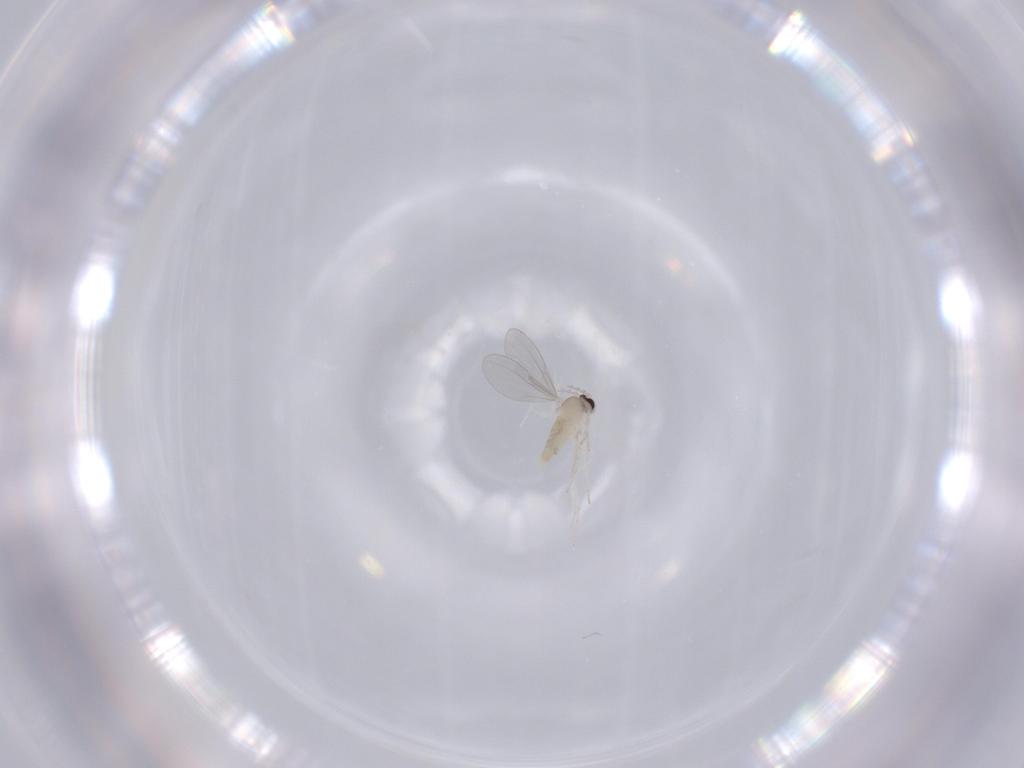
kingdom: Animalia
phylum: Arthropoda
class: Insecta
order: Diptera
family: Cecidomyiidae
